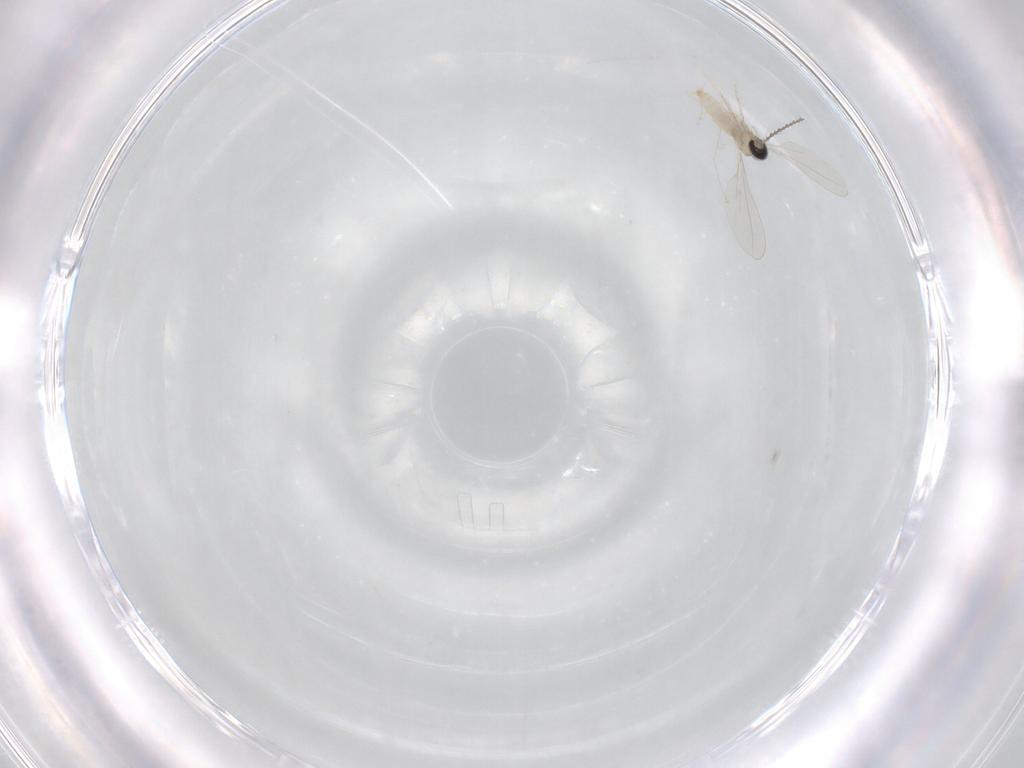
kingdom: Animalia
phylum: Arthropoda
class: Insecta
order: Diptera
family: Cecidomyiidae
